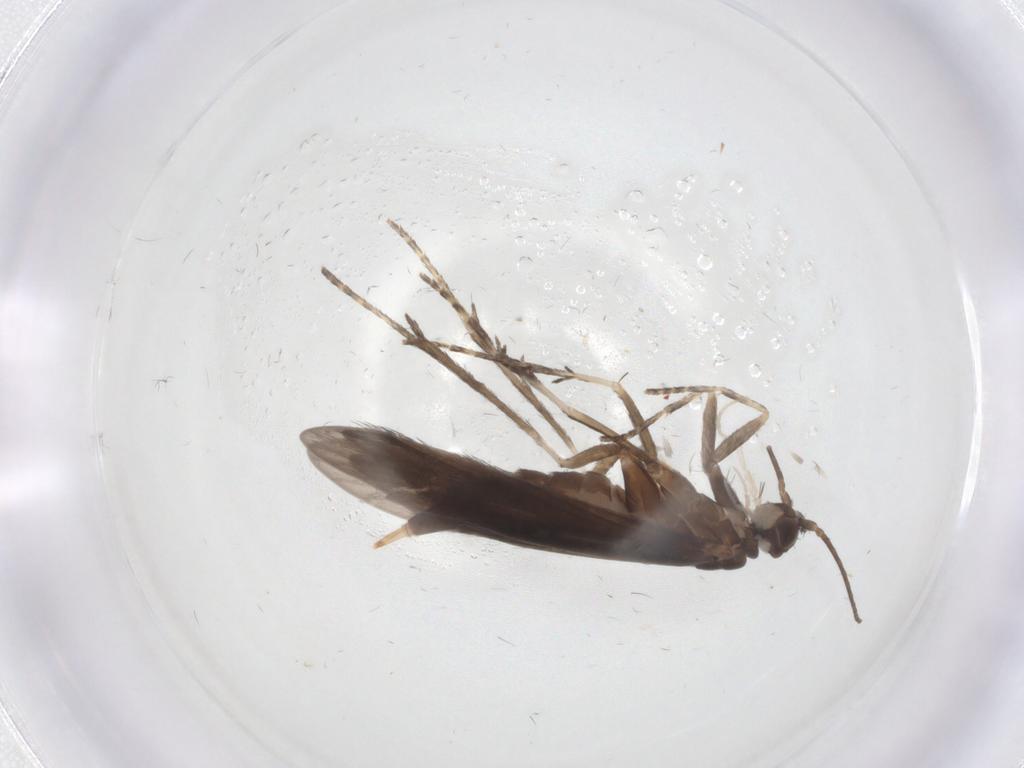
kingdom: Animalia
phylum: Arthropoda
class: Insecta
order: Trichoptera
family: Xiphocentronidae
